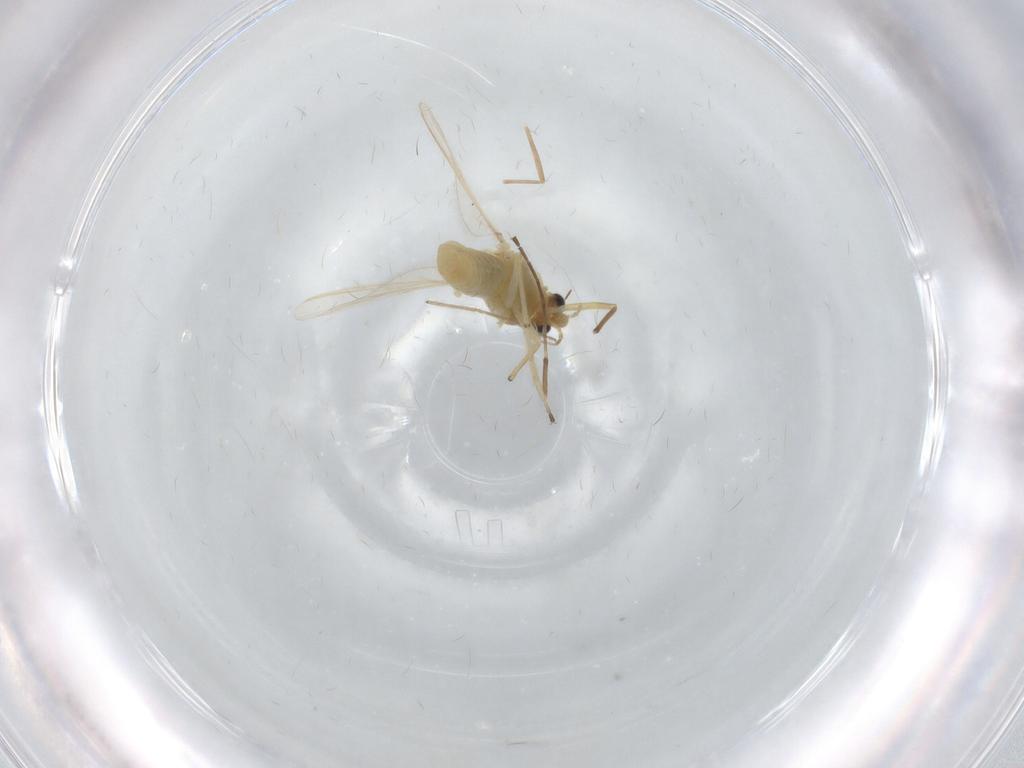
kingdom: Animalia
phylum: Arthropoda
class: Insecta
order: Diptera
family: Chironomidae
